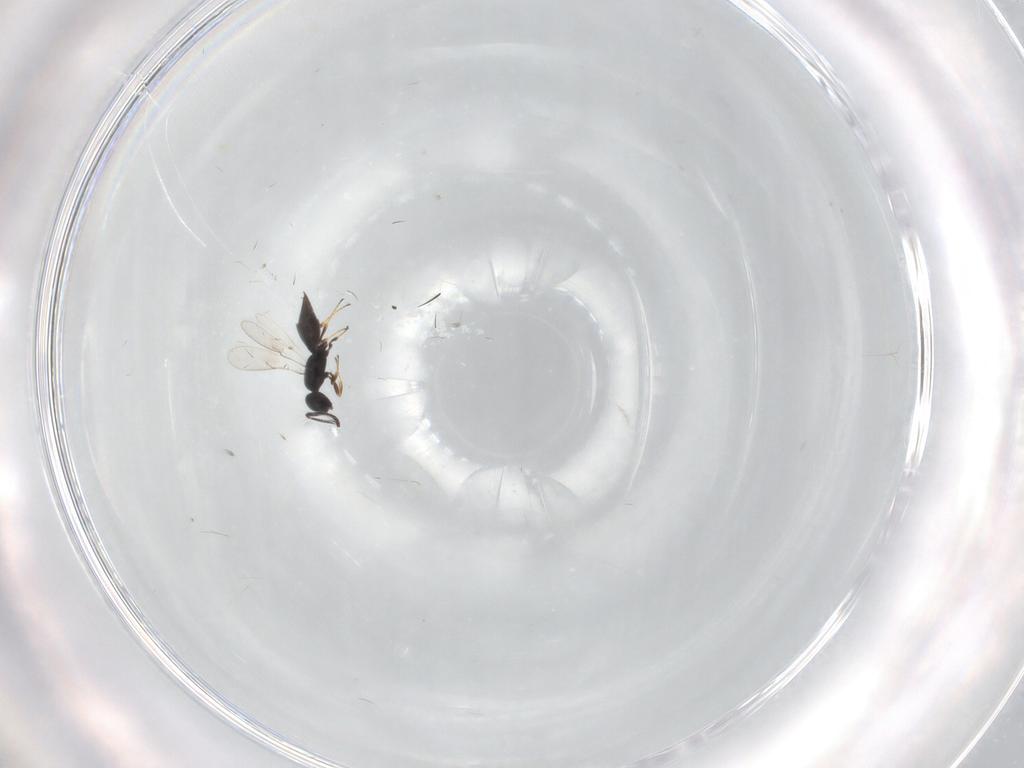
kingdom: Animalia
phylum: Arthropoda
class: Insecta
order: Hymenoptera
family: Scelionidae
